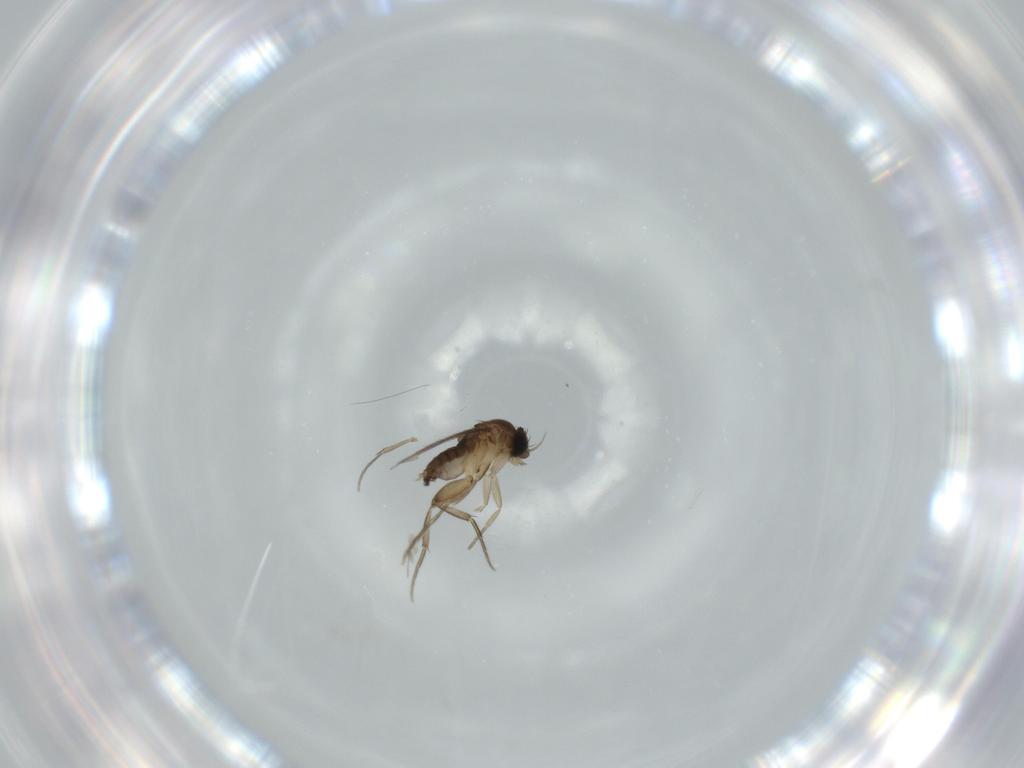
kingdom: Animalia
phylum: Arthropoda
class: Insecta
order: Diptera
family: Phoridae
